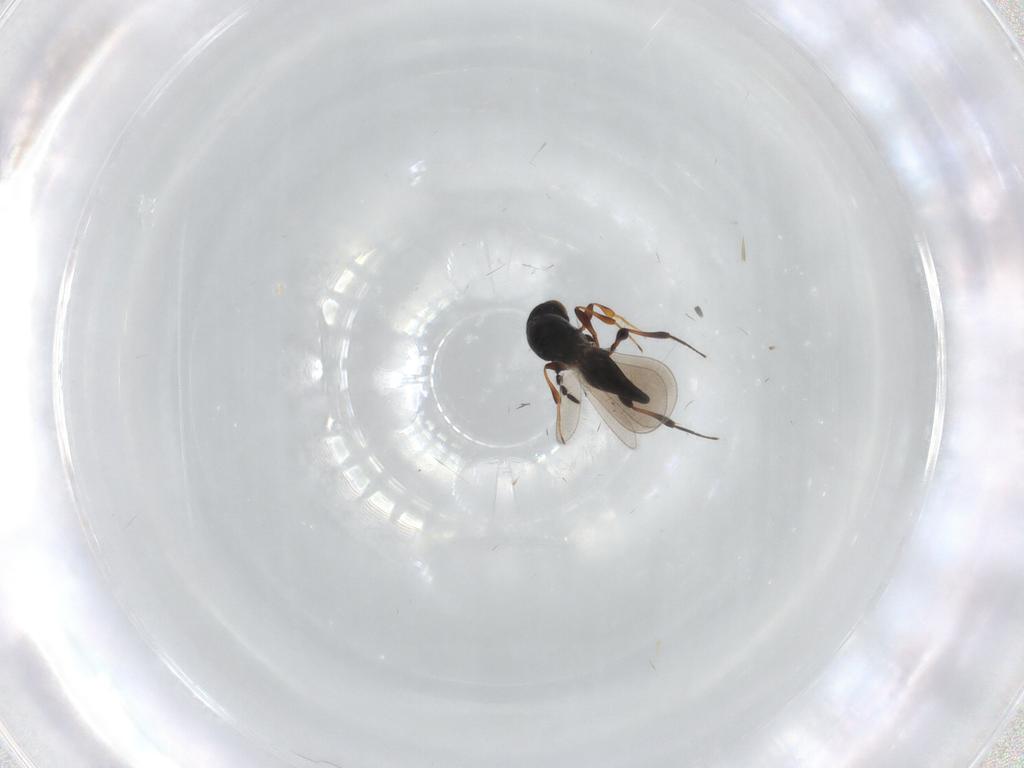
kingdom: Animalia
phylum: Arthropoda
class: Insecta
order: Hymenoptera
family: Platygastridae
